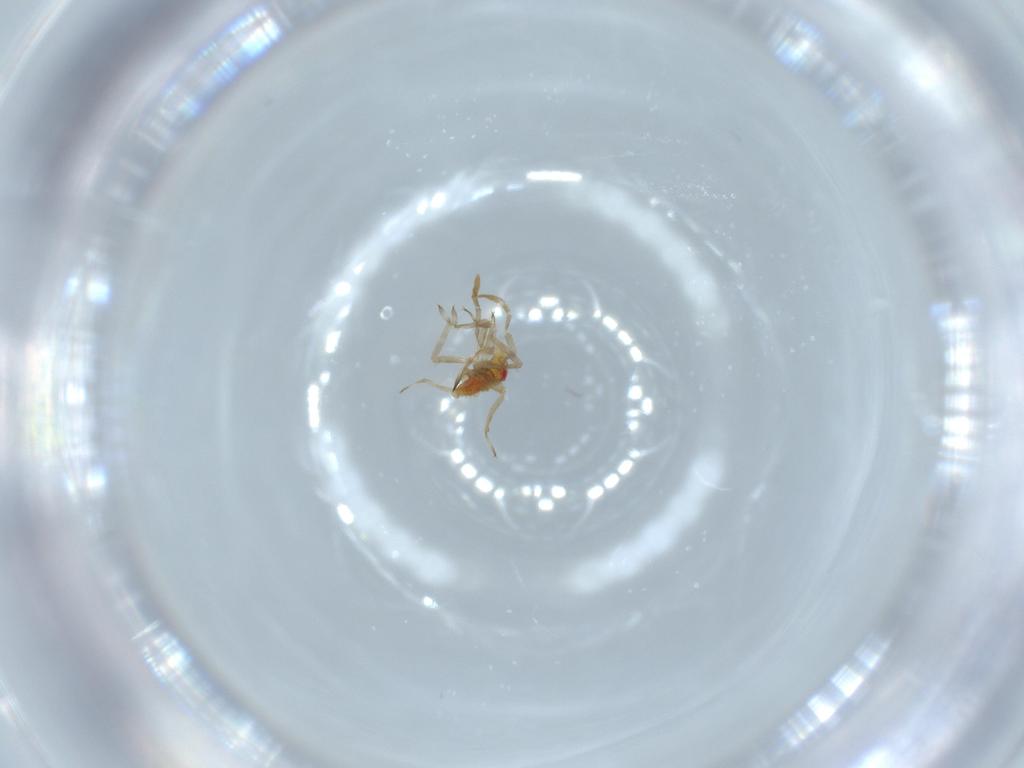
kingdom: Animalia
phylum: Arthropoda
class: Insecta
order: Hemiptera
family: Miridae
